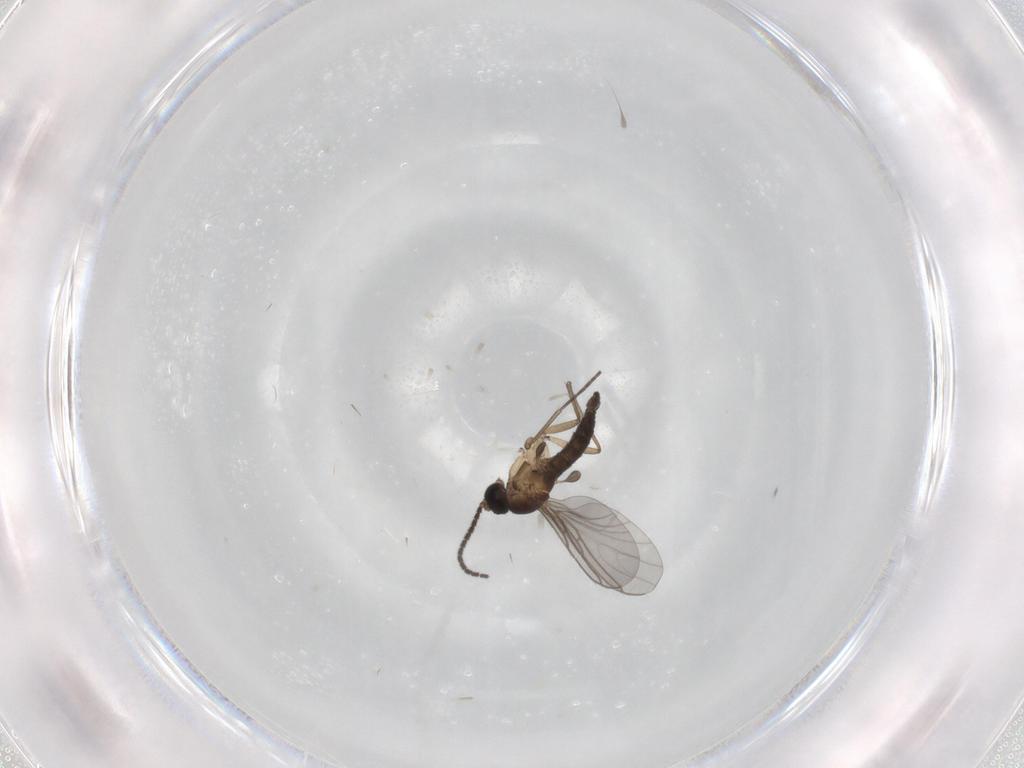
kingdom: Animalia
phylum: Arthropoda
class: Insecta
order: Diptera
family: Sciaridae
